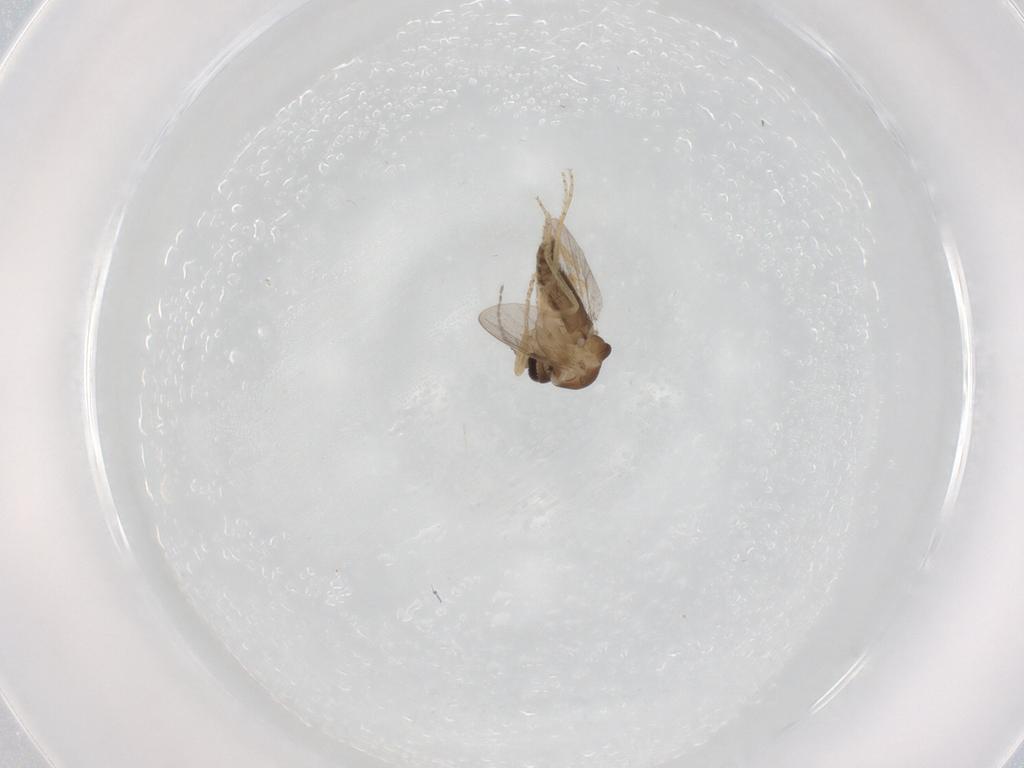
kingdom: Animalia
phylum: Arthropoda
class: Insecta
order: Diptera
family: Ceratopogonidae
